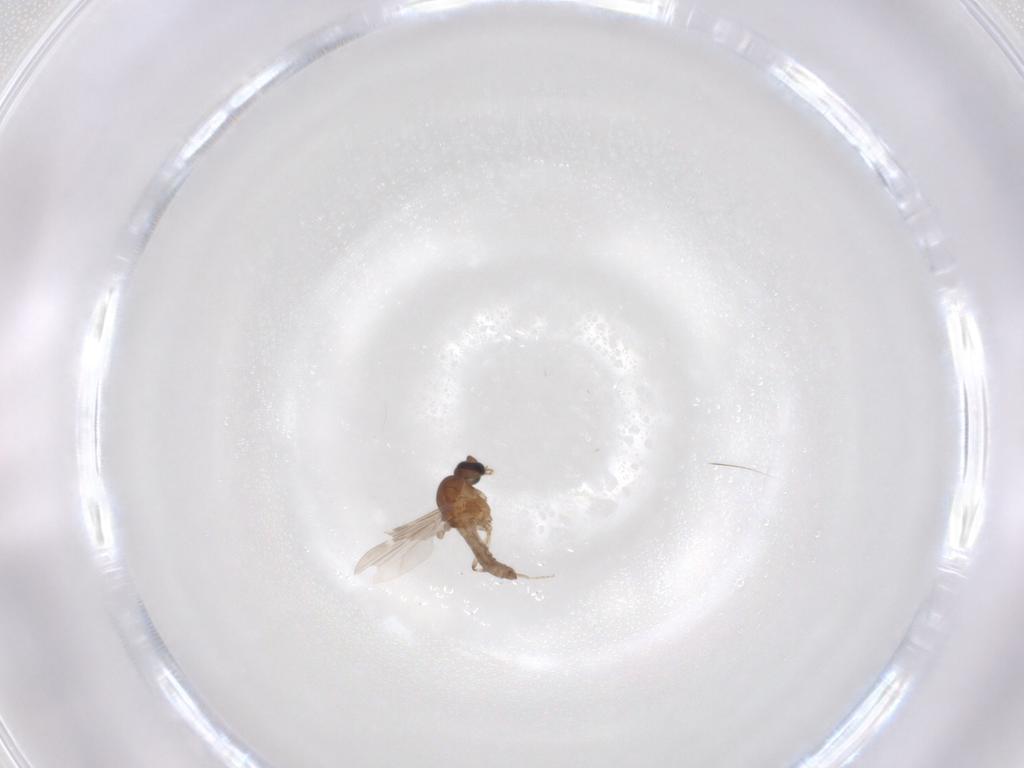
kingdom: Animalia
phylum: Arthropoda
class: Insecta
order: Diptera
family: Sciaridae
